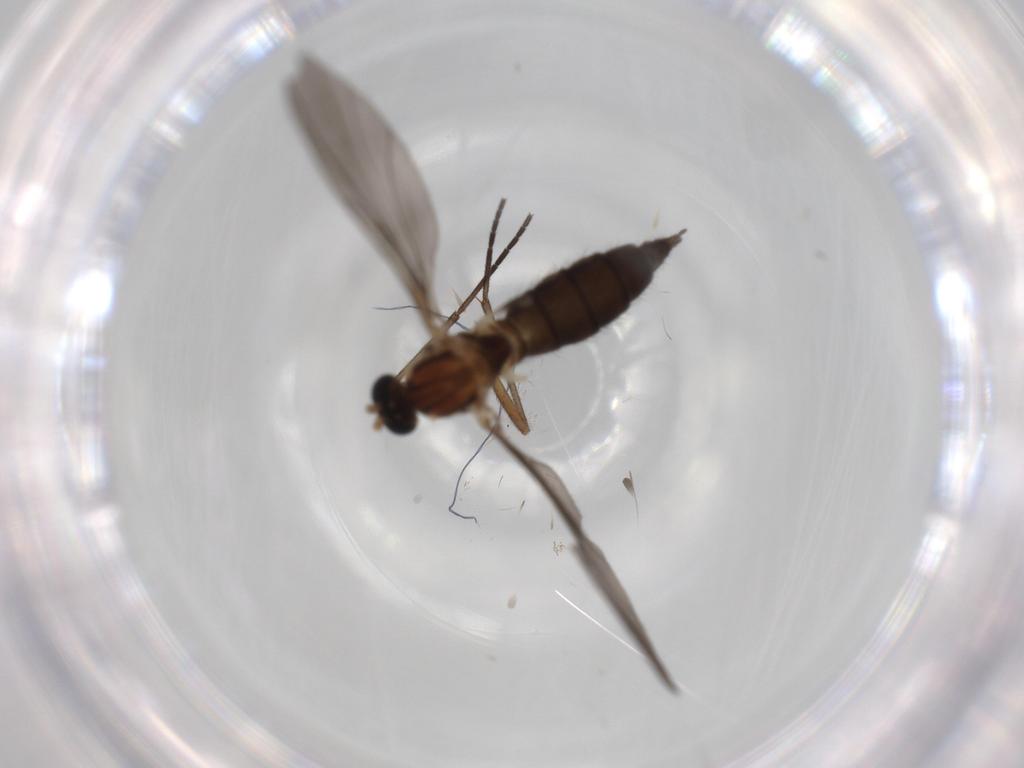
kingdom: Animalia
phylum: Arthropoda
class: Insecta
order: Diptera
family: Sciaridae
